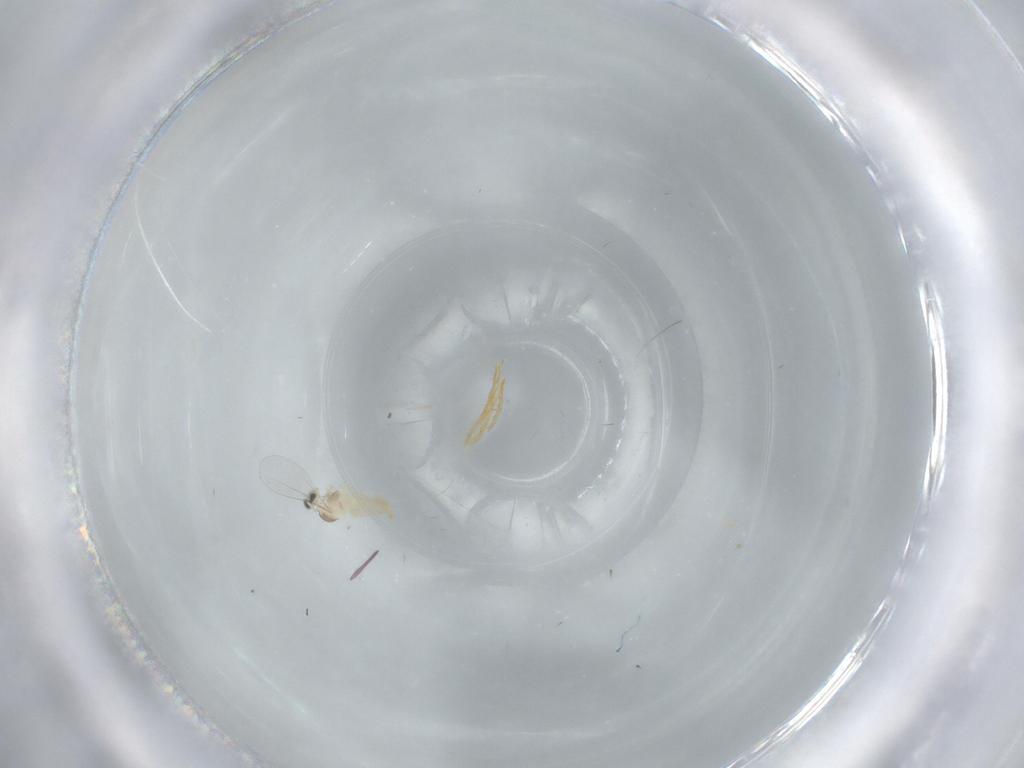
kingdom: Animalia
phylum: Arthropoda
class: Insecta
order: Diptera
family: Cecidomyiidae
